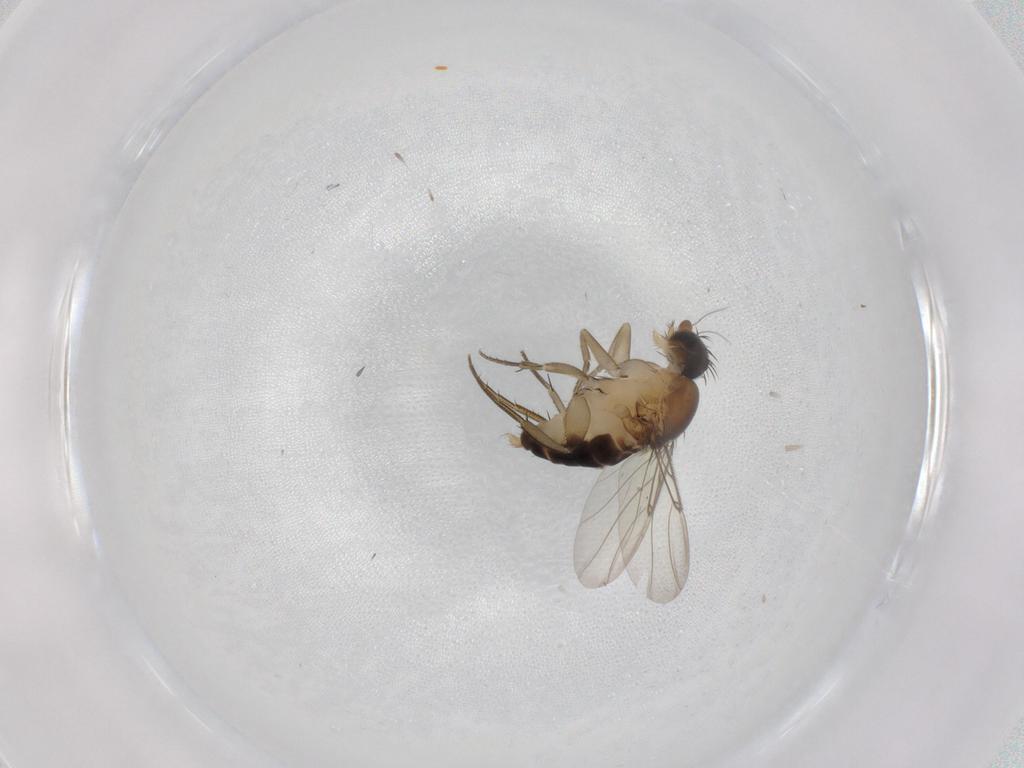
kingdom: Animalia
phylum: Arthropoda
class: Insecta
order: Diptera
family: Phoridae
